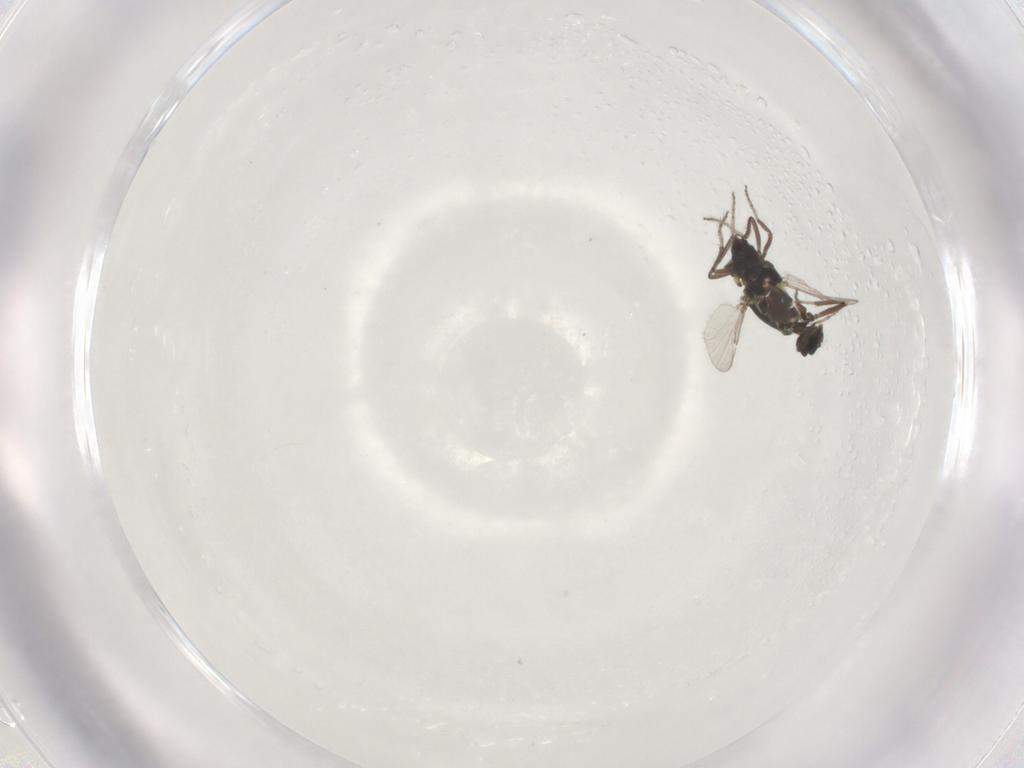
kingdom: Animalia
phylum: Arthropoda
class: Insecta
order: Diptera
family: Ceratopogonidae
